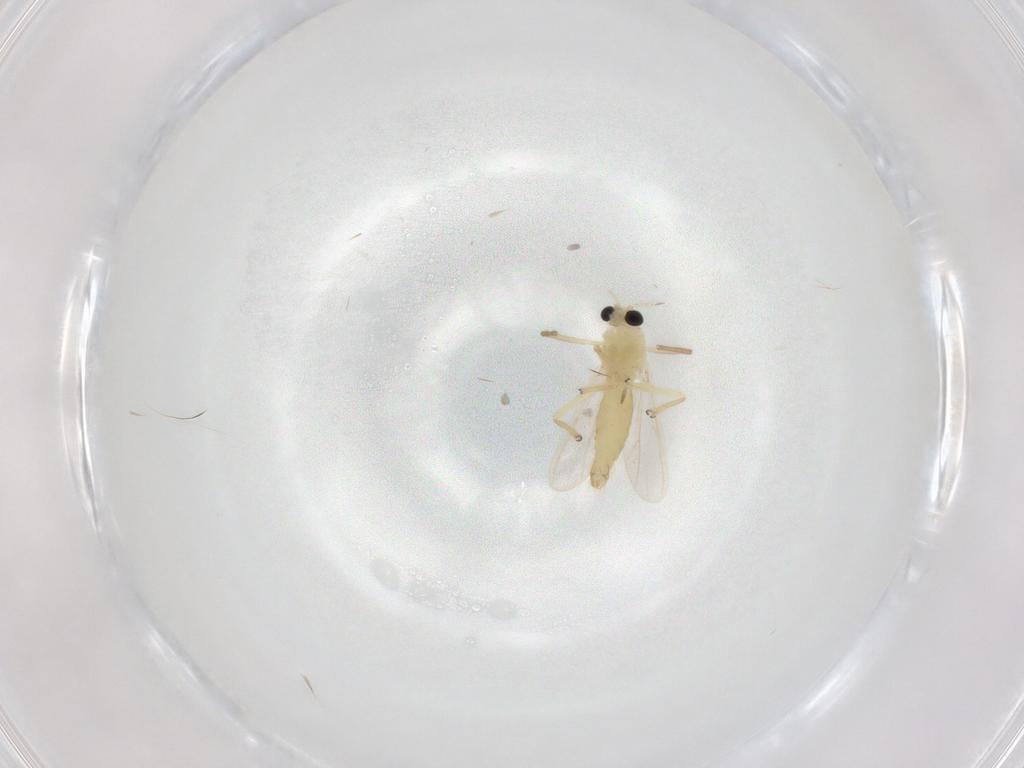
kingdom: Animalia
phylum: Arthropoda
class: Insecta
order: Diptera
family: Chironomidae
